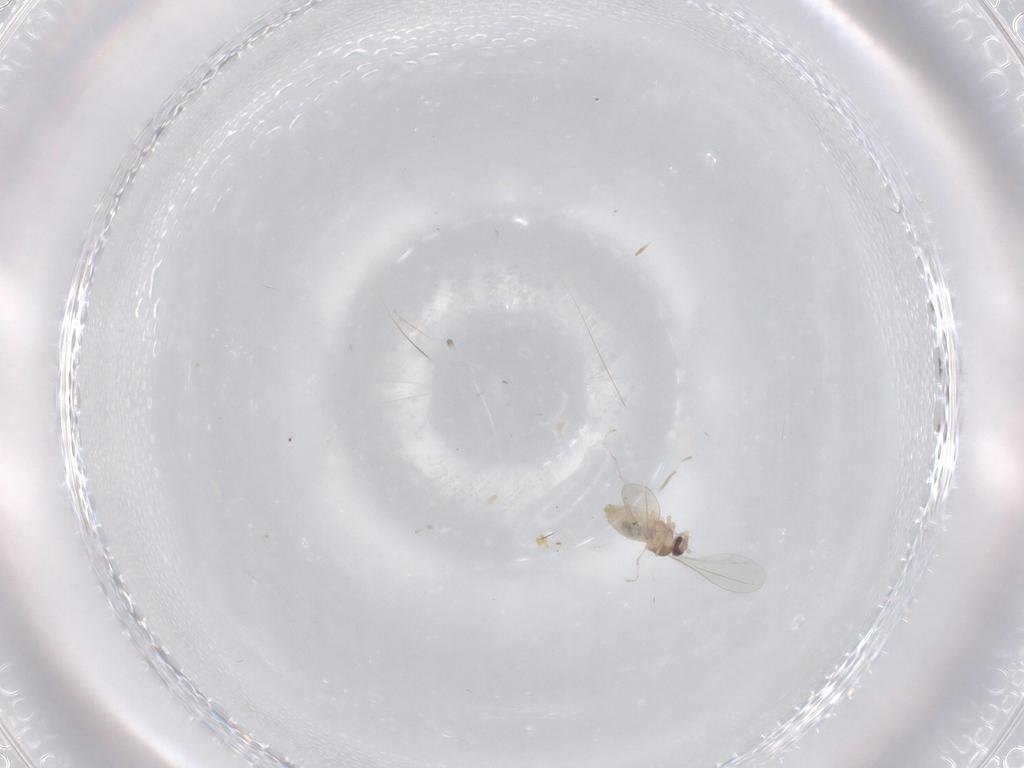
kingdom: Animalia
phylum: Arthropoda
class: Insecta
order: Diptera
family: Cecidomyiidae
